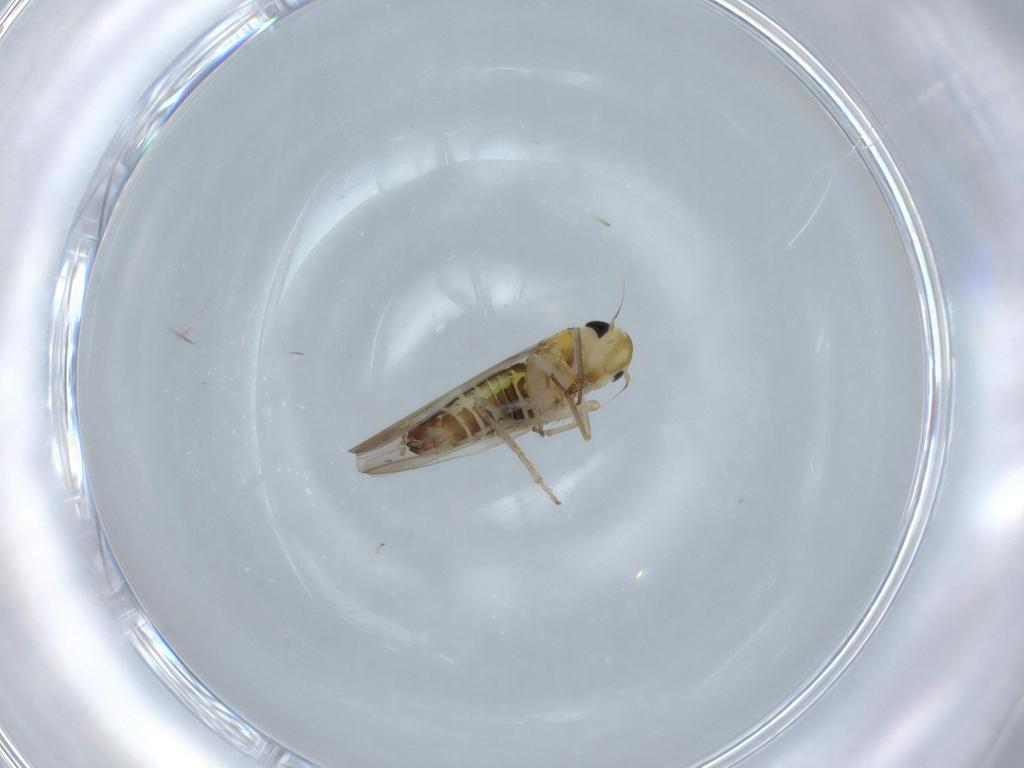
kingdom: Animalia
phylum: Arthropoda
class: Insecta
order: Hemiptera
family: Cicadellidae
